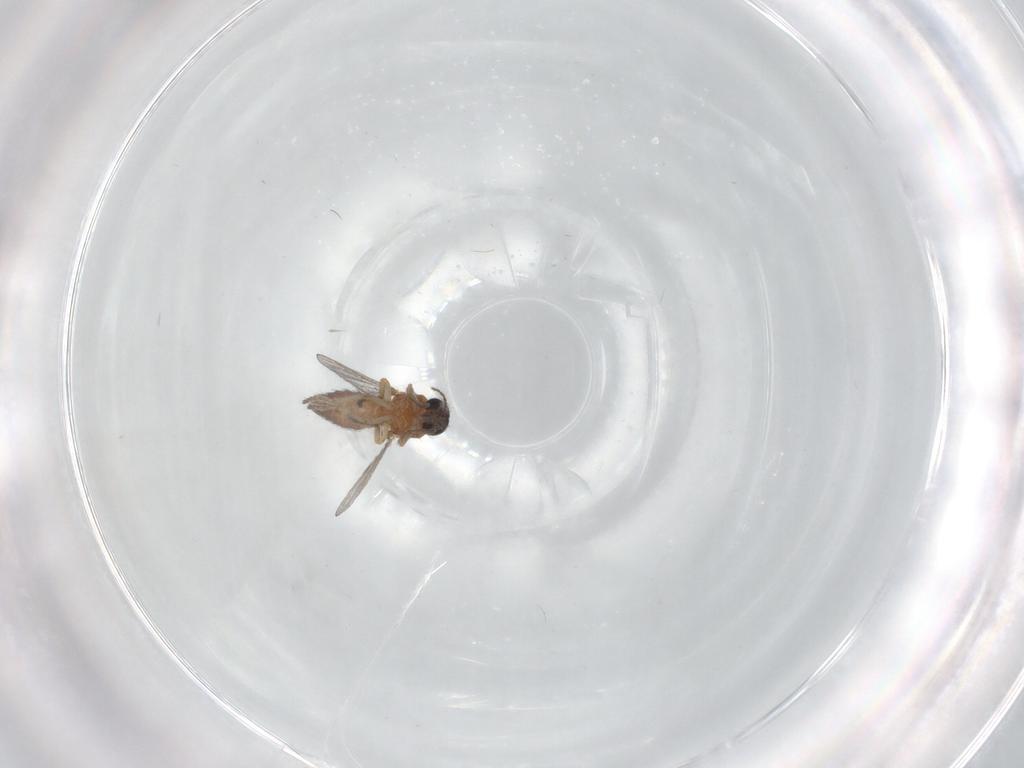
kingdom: Animalia
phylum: Arthropoda
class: Insecta
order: Diptera
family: Ceratopogonidae
